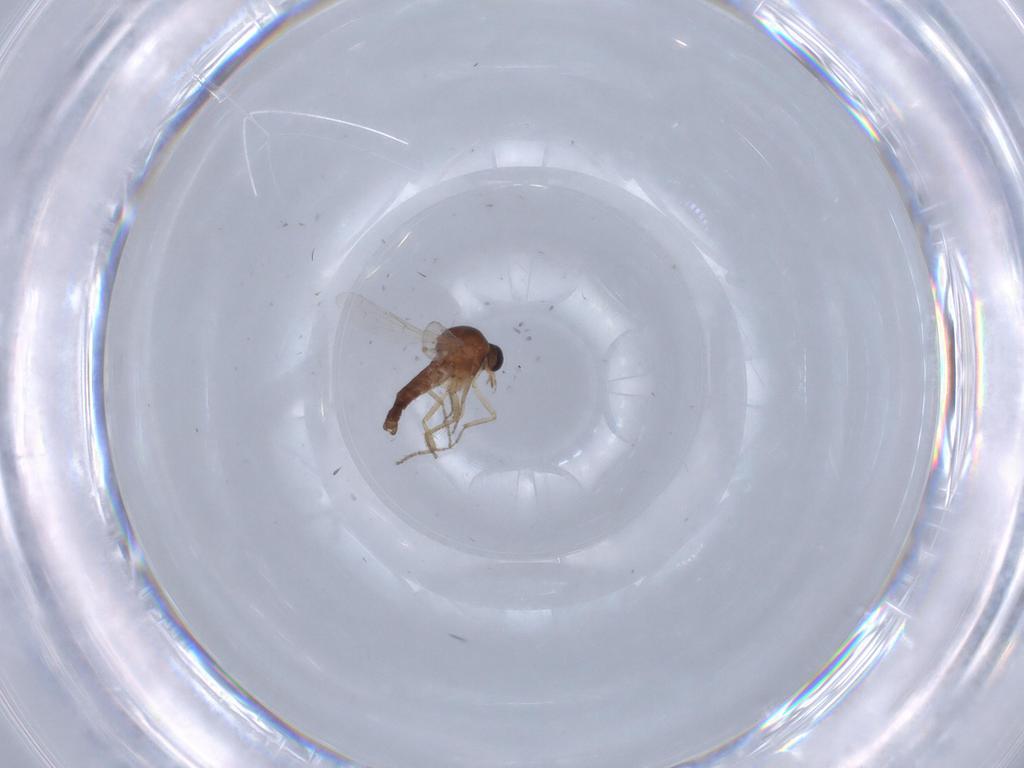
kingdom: Animalia
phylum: Arthropoda
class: Insecta
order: Diptera
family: Ceratopogonidae
